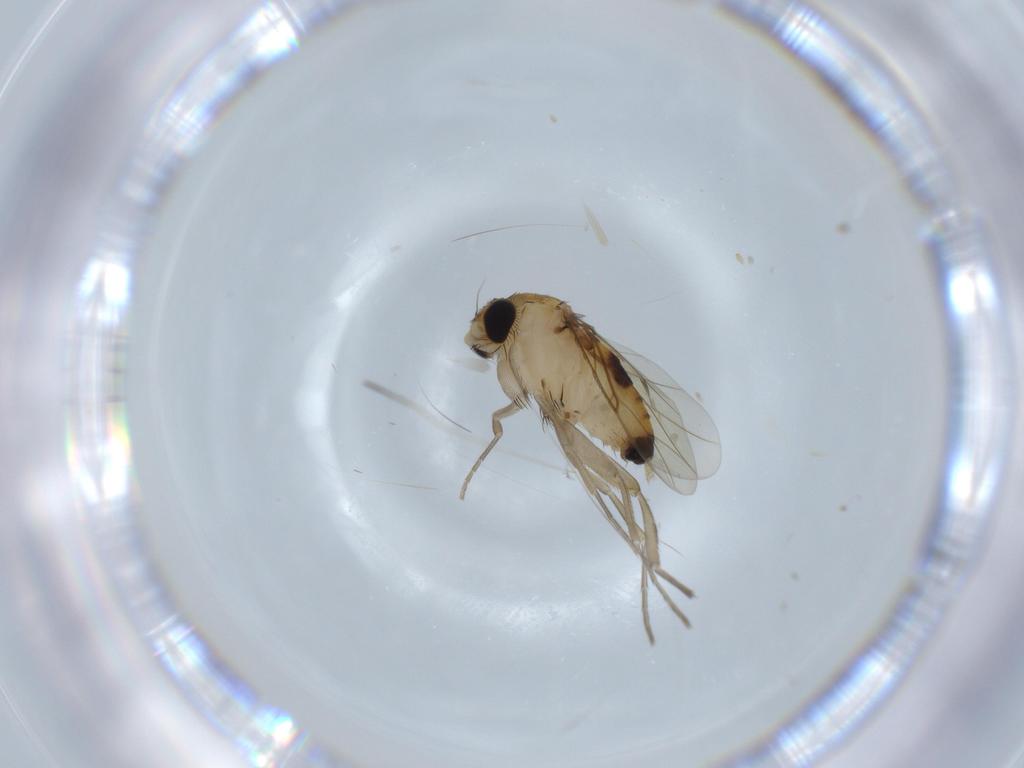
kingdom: Animalia
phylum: Arthropoda
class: Insecta
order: Diptera
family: Cecidomyiidae
